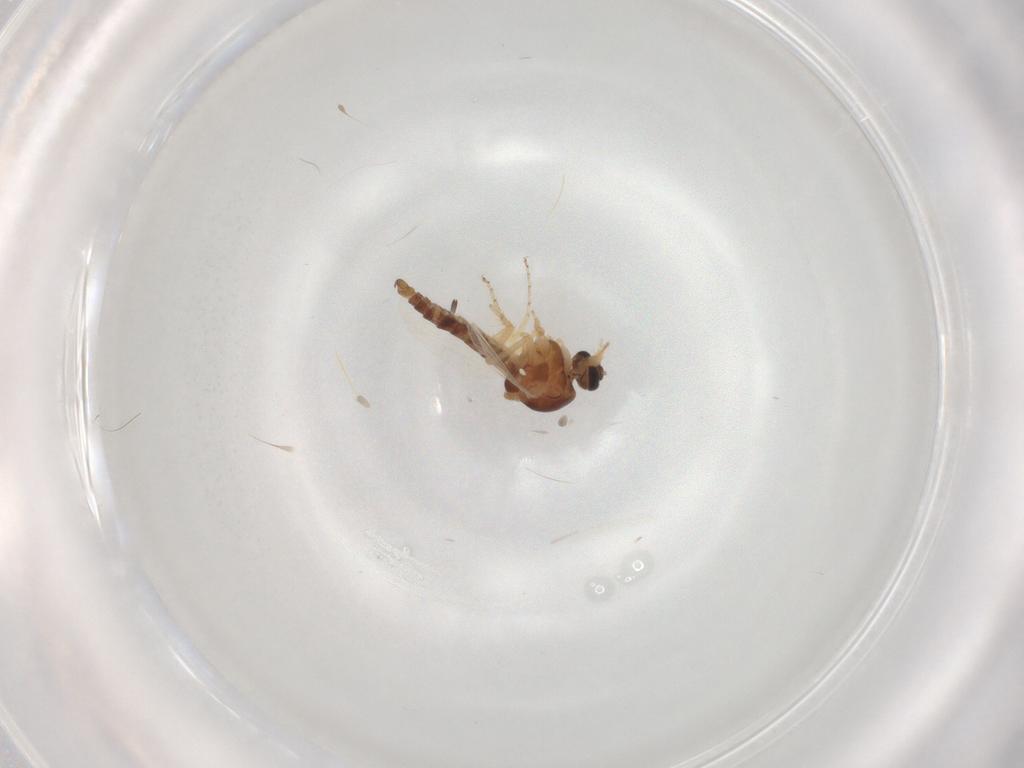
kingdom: Animalia
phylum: Arthropoda
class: Insecta
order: Diptera
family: Ceratopogonidae
